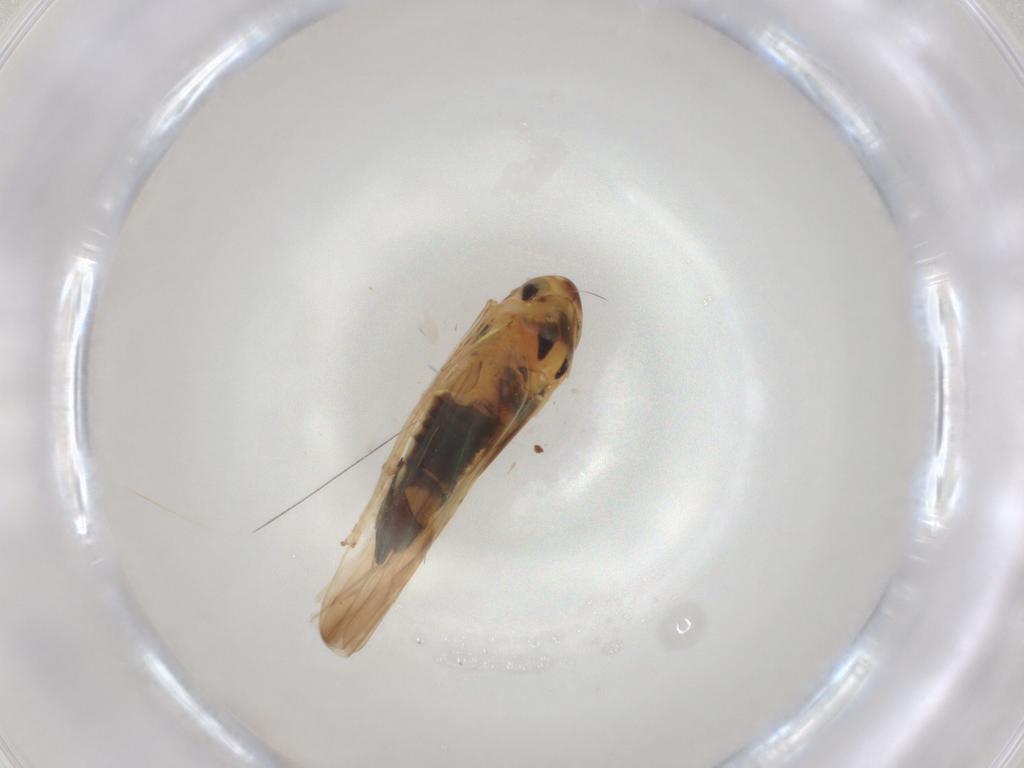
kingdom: Animalia
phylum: Arthropoda
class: Insecta
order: Hemiptera
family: Cicadellidae
